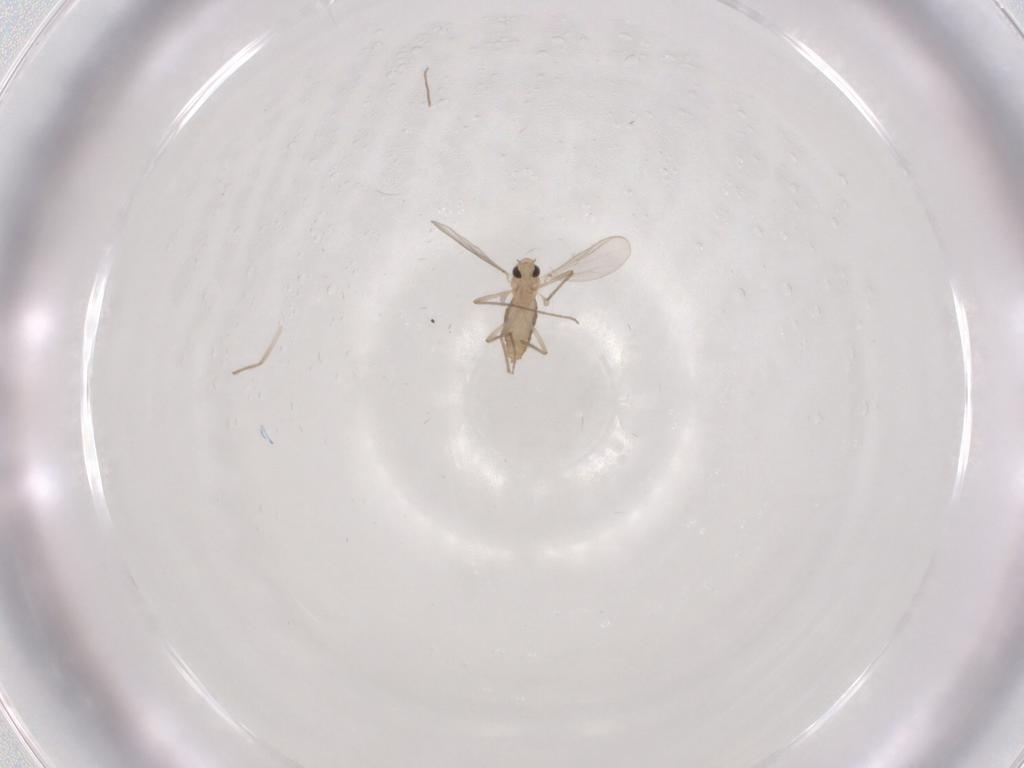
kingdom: Animalia
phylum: Arthropoda
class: Insecta
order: Diptera
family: Chironomidae
